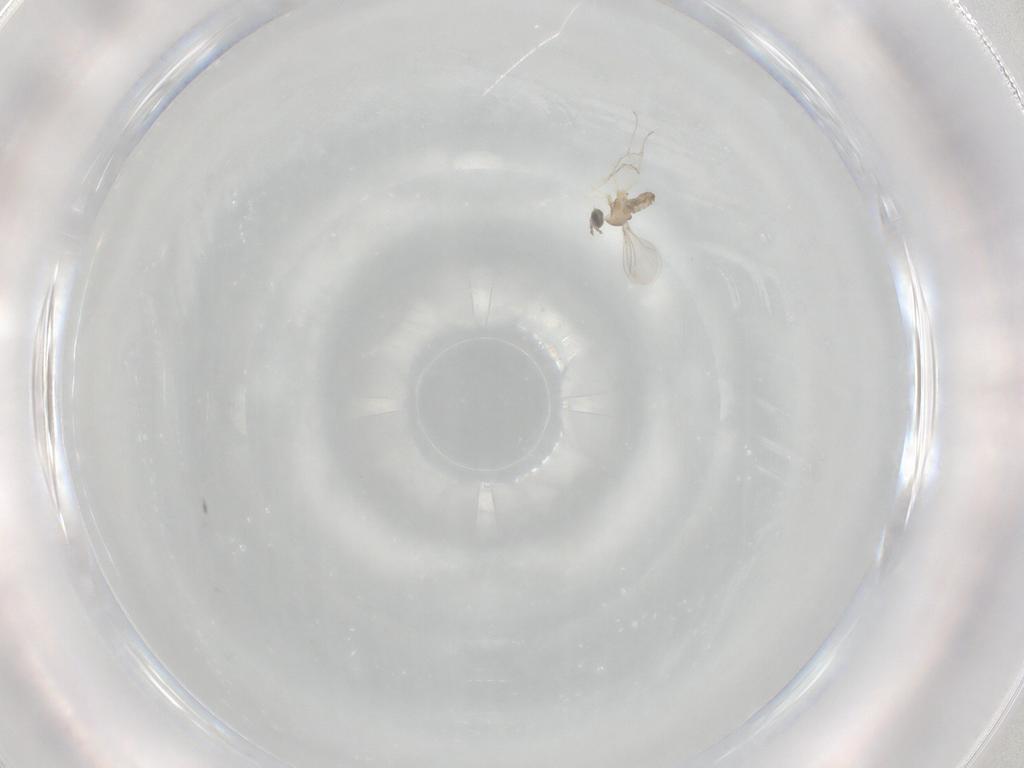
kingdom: Animalia
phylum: Arthropoda
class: Insecta
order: Diptera
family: Cecidomyiidae
